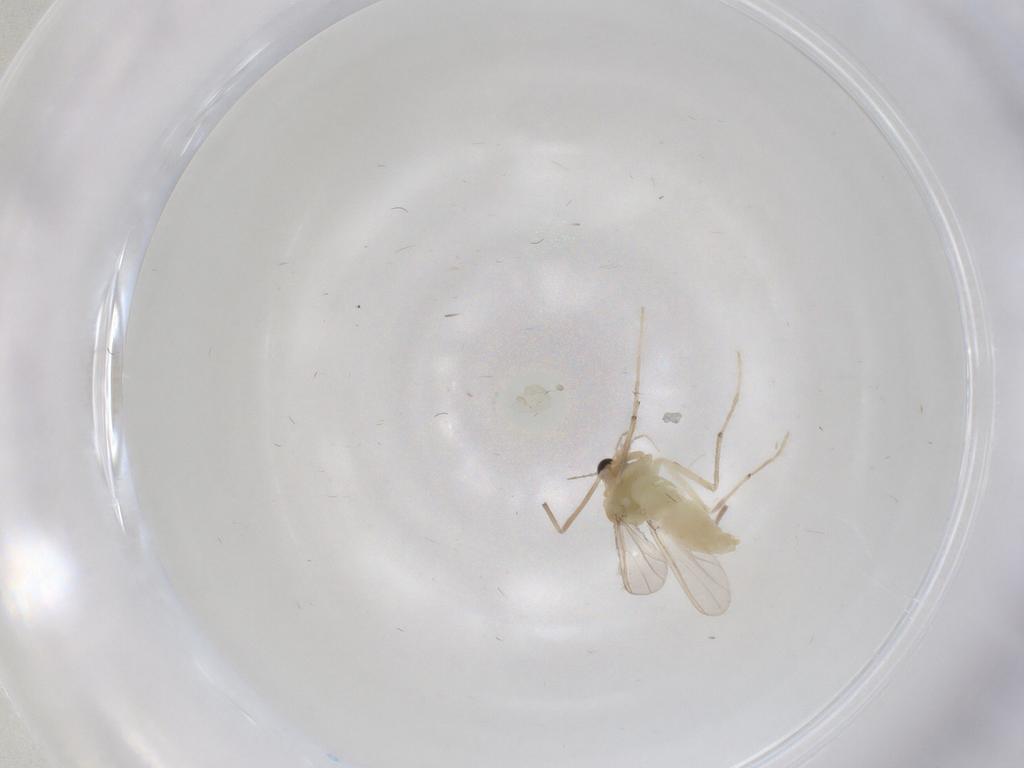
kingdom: Animalia
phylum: Arthropoda
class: Insecta
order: Diptera
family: Chironomidae
